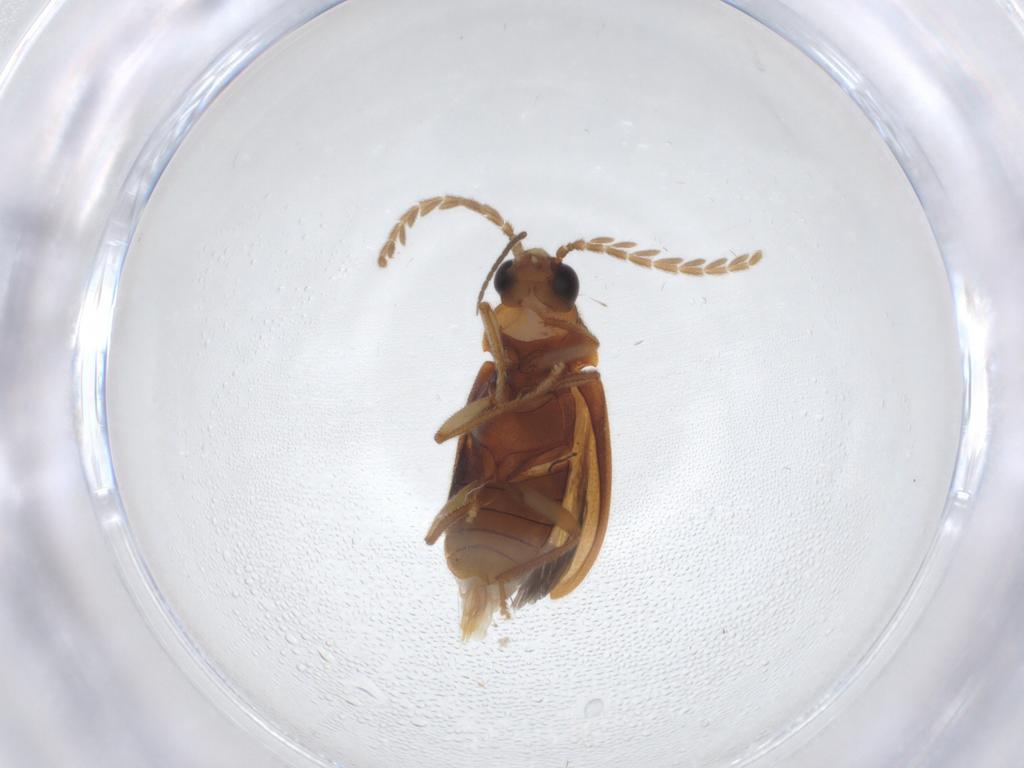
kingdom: Animalia
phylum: Arthropoda
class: Insecta
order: Coleoptera
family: Ptilodactylidae
